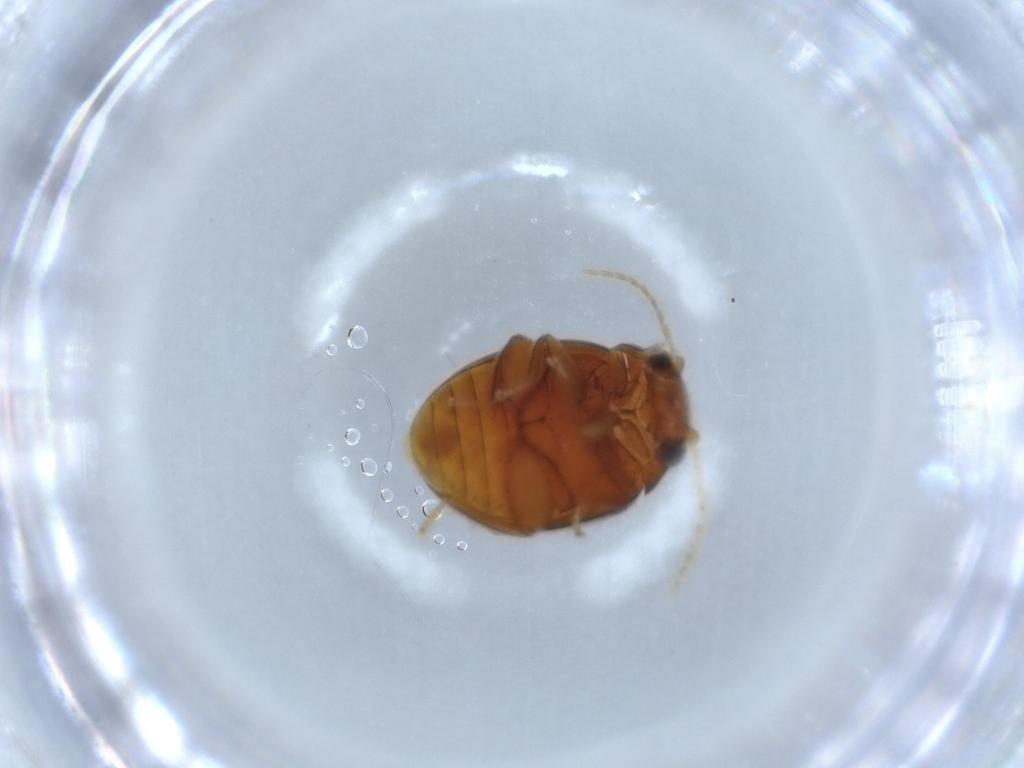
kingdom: Animalia
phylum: Arthropoda
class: Insecta
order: Coleoptera
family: Scirtidae
